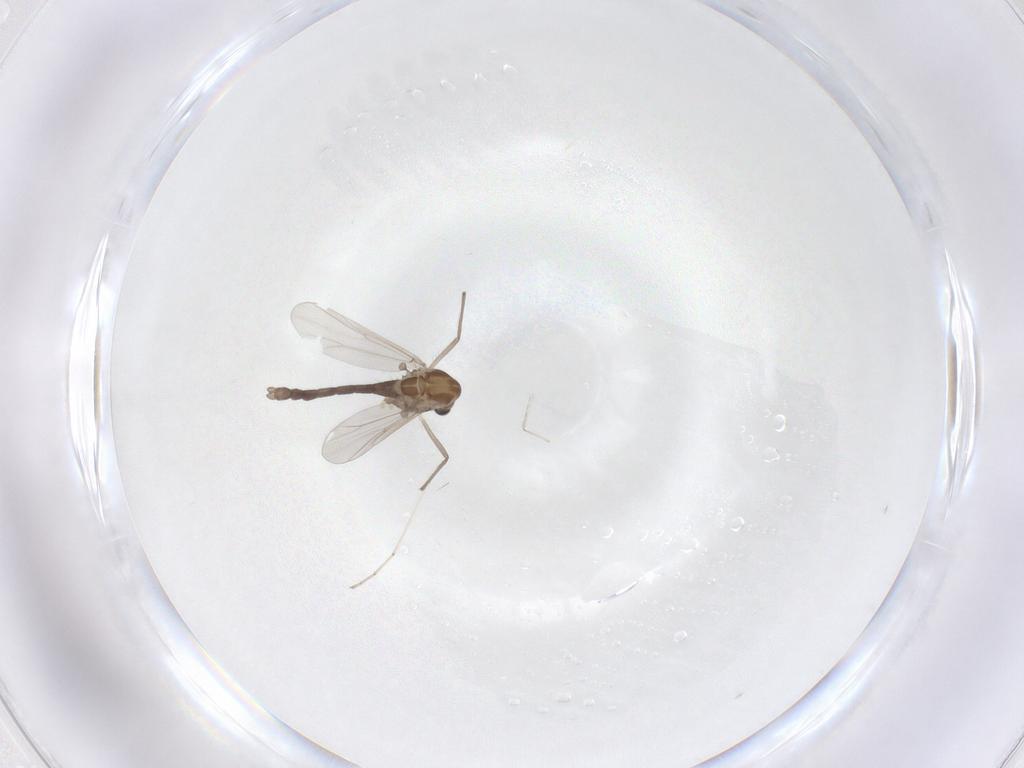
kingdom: Animalia
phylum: Arthropoda
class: Insecta
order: Diptera
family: Chironomidae
